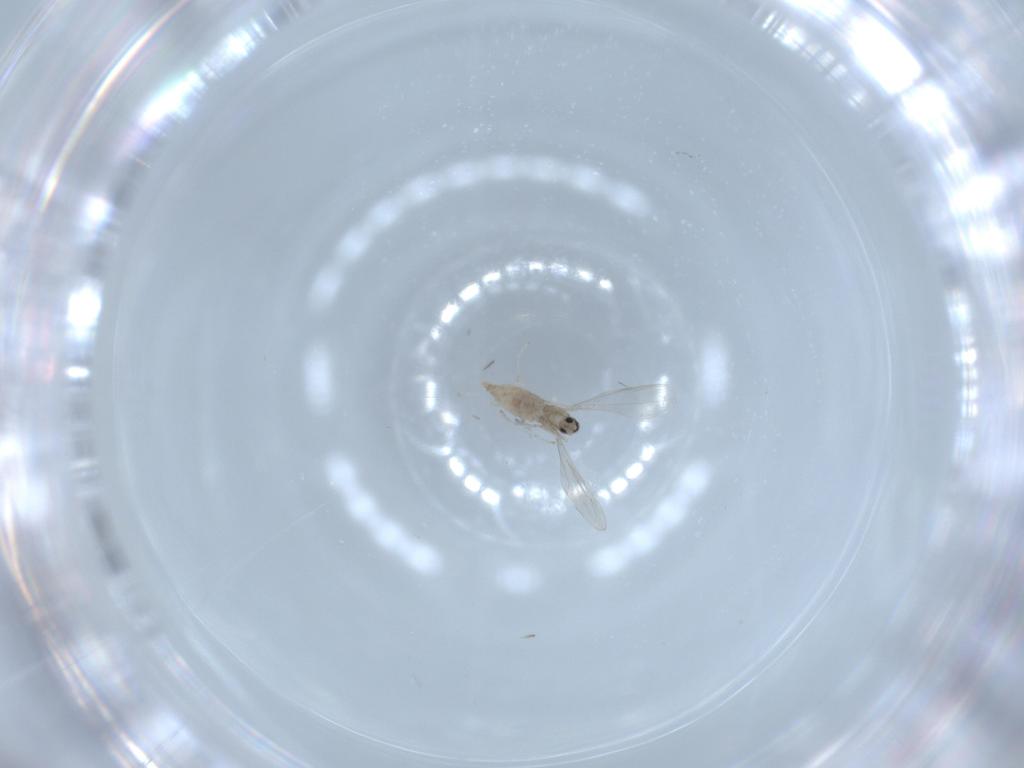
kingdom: Animalia
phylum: Arthropoda
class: Insecta
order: Diptera
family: Cecidomyiidae
